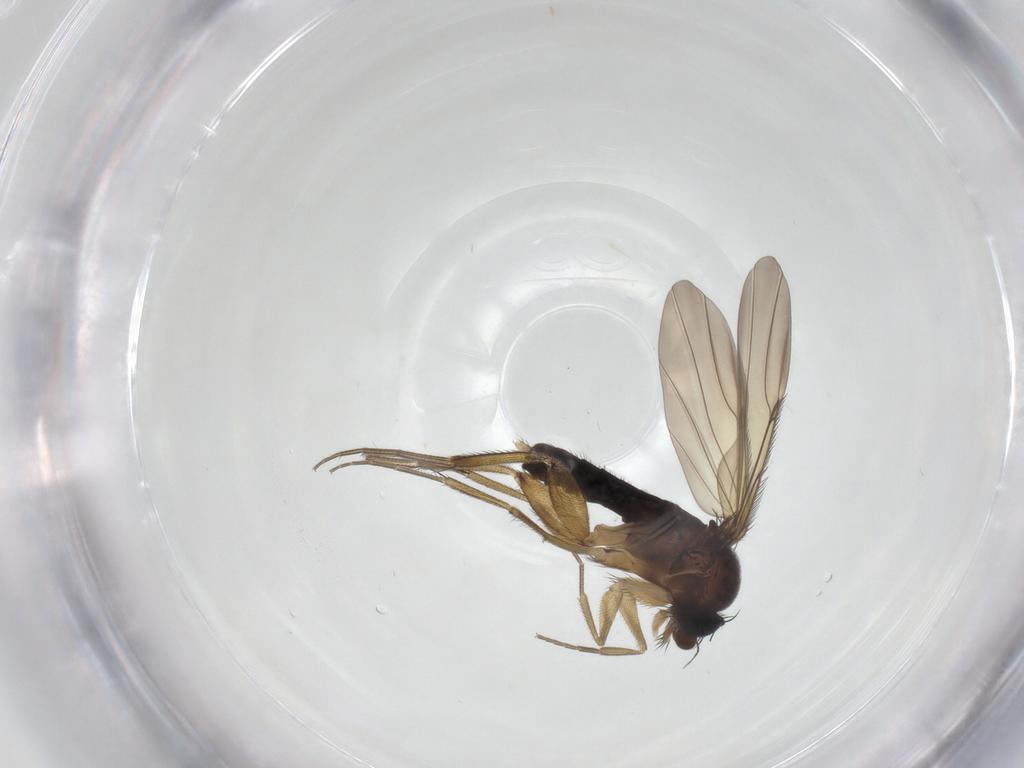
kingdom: Animalia
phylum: Arthropoda
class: Insecta
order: Diptera
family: Phoridae
